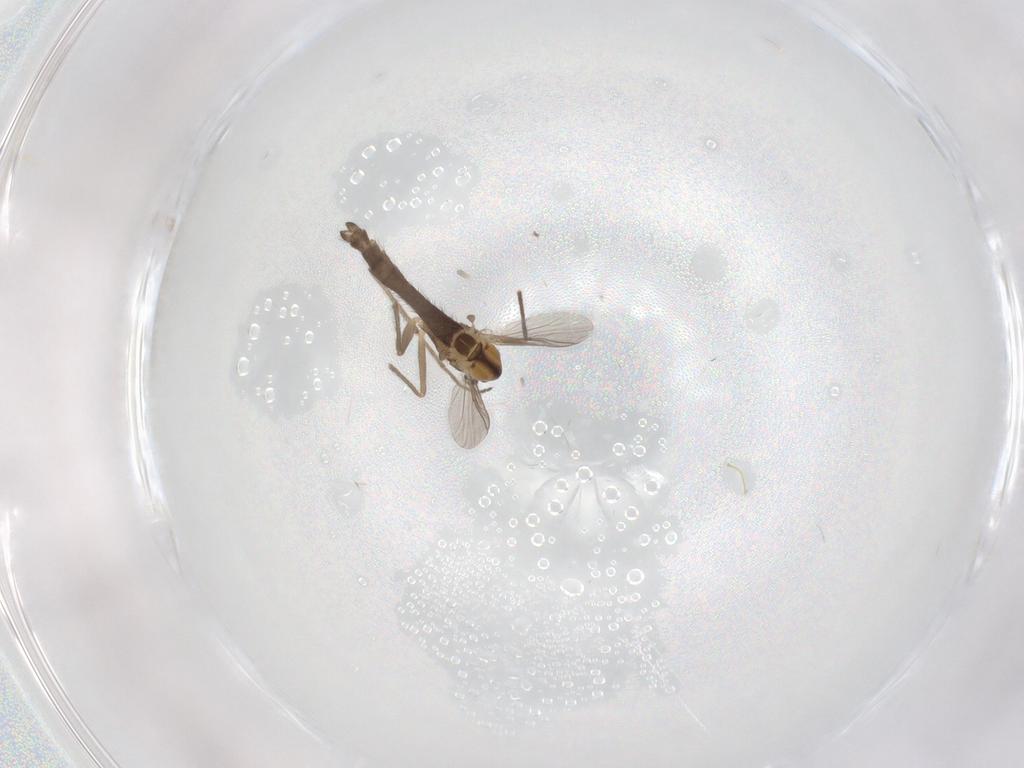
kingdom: Animalia
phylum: Arthropoda
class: Insecta
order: Diptera
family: Chironomidae
